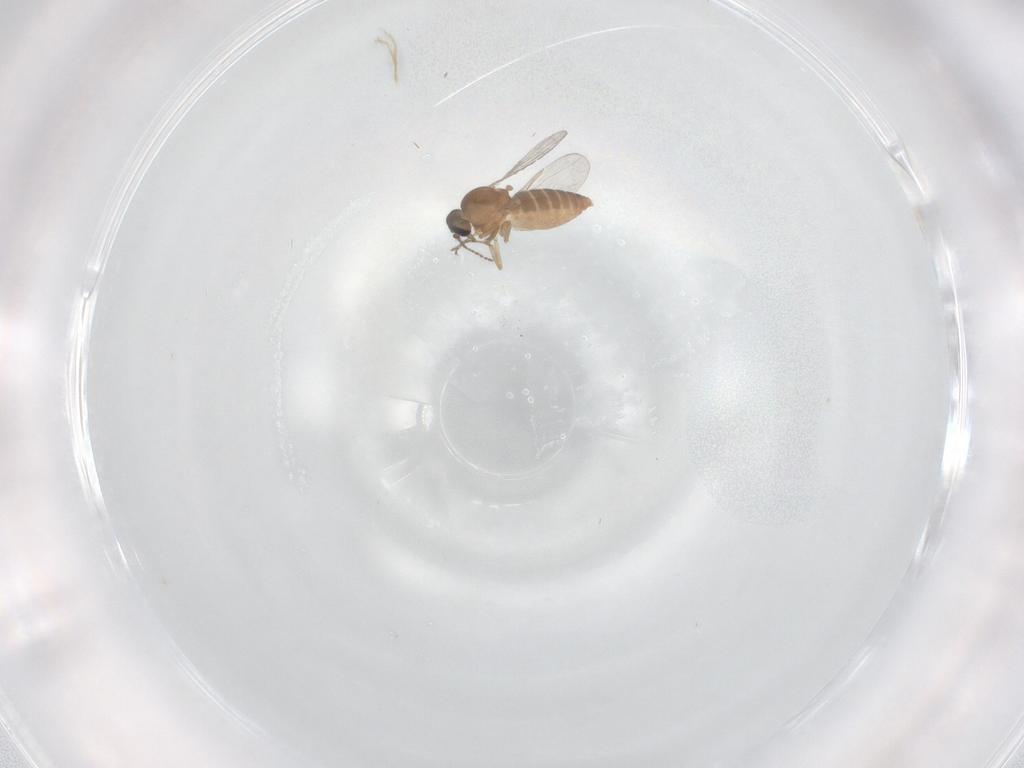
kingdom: Animalia
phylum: Arthropoda
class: Insecta
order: Diptera
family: Ceratopogonidae
